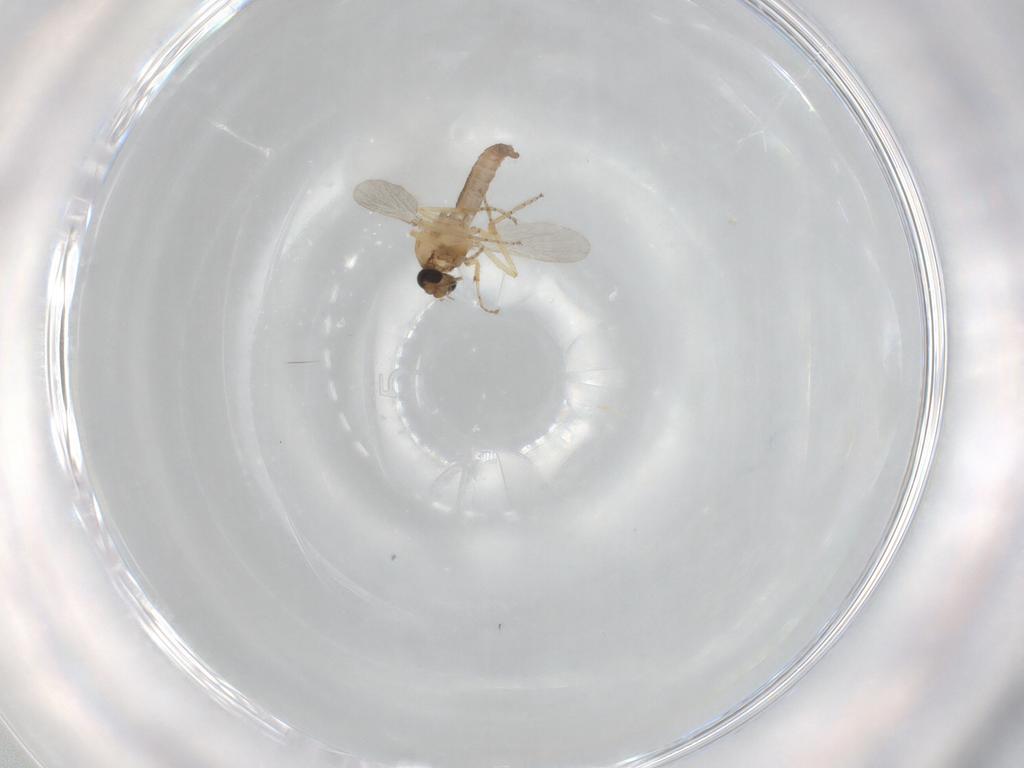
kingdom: Animalia
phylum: Arthropoda
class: Insecta
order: Diptera
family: Ceratopogonidae
